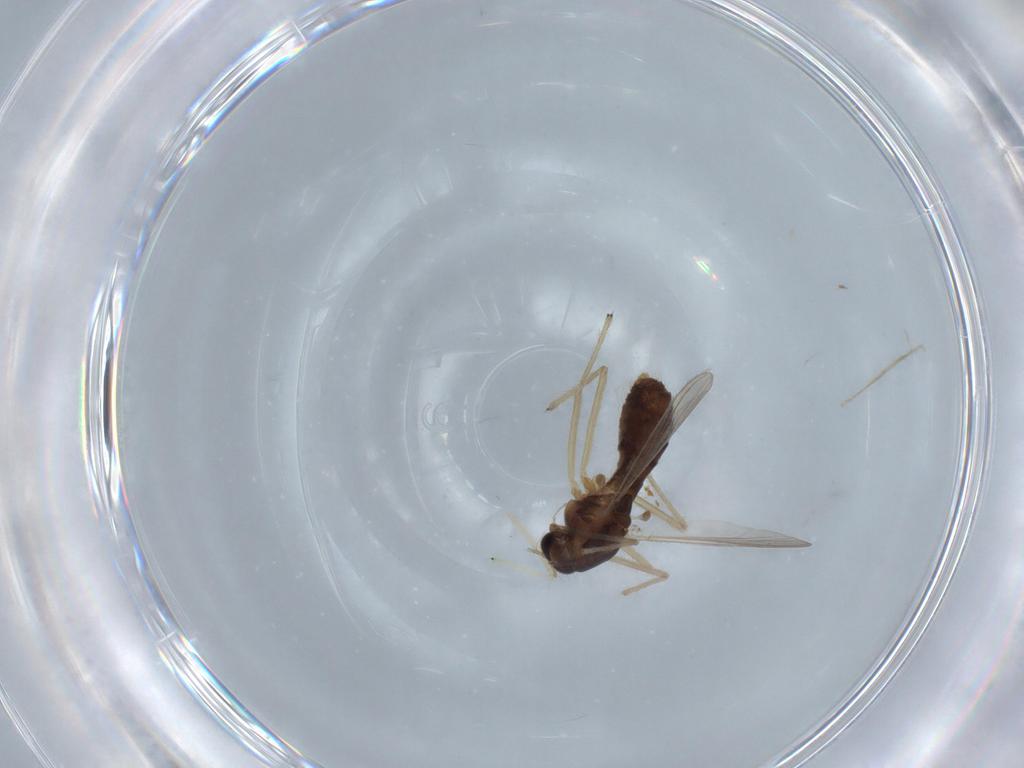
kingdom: Animalia
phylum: Arthropoda
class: Insecta
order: Diptera
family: Chironomidae
